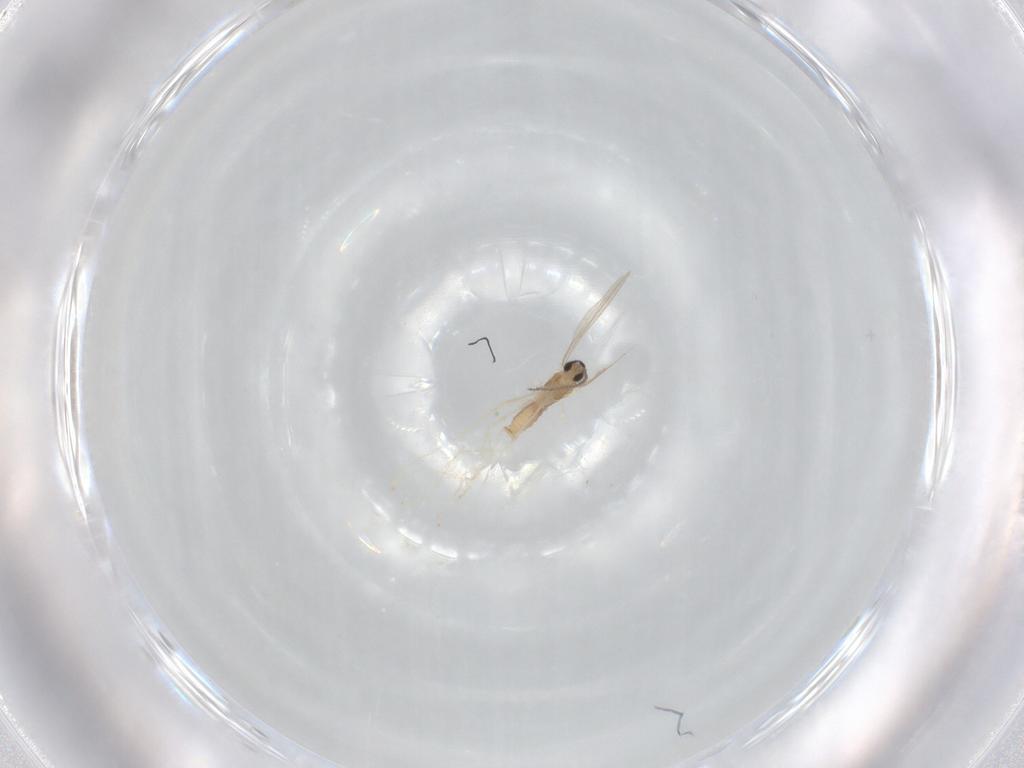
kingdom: Animalia
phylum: Arthropoda
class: Insecta
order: Diptera
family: Cecidomyiidae
